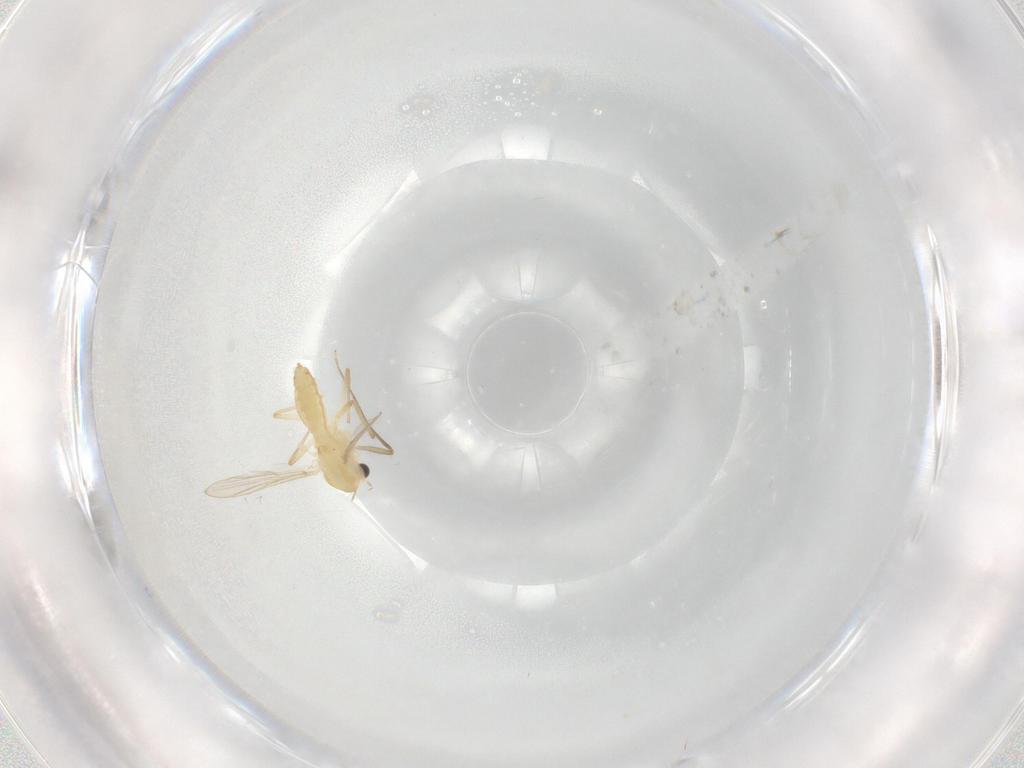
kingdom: Animalia
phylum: Arthropoda
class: Insecta
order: Diptera
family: Chironomidae
